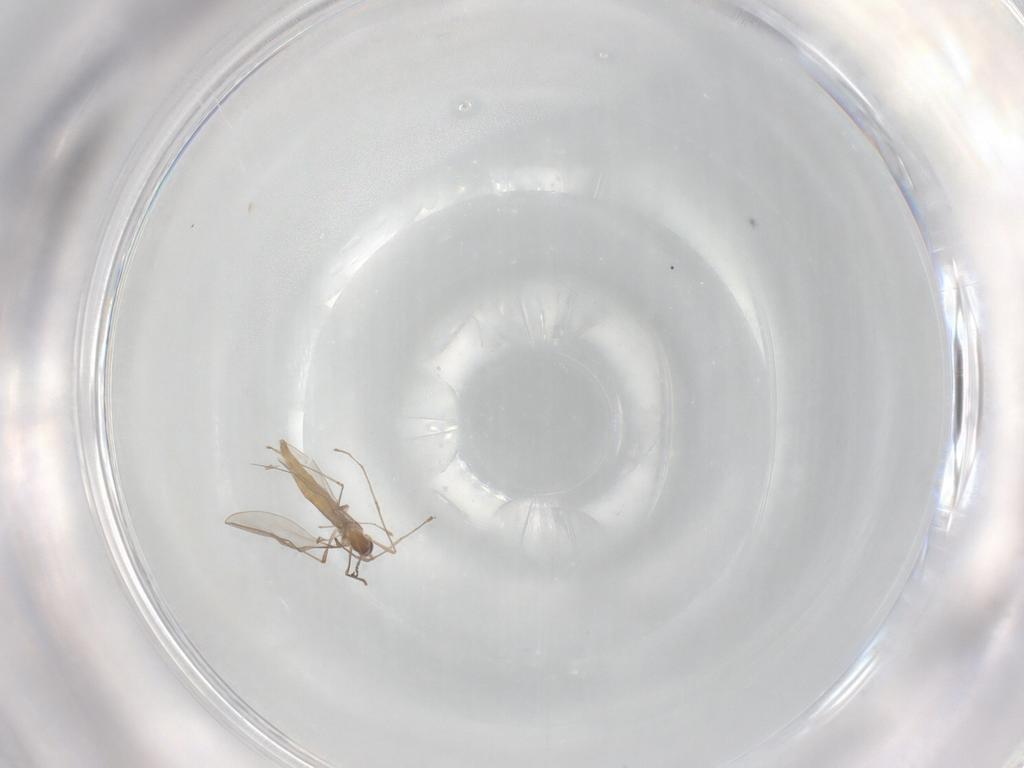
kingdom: Animalia
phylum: Arthropoda
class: Insecta
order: Diptera
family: Cecidomyiidae
